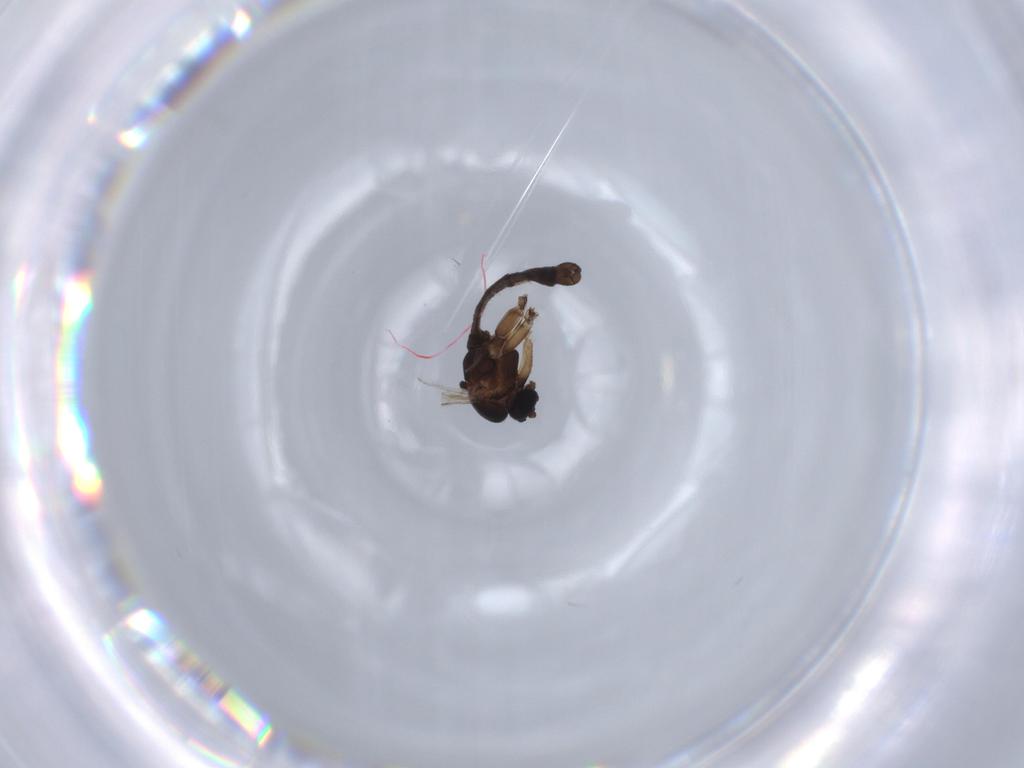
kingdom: Animalia
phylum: Arthropoda
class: Insecta
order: Diptera
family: Sciaridae
